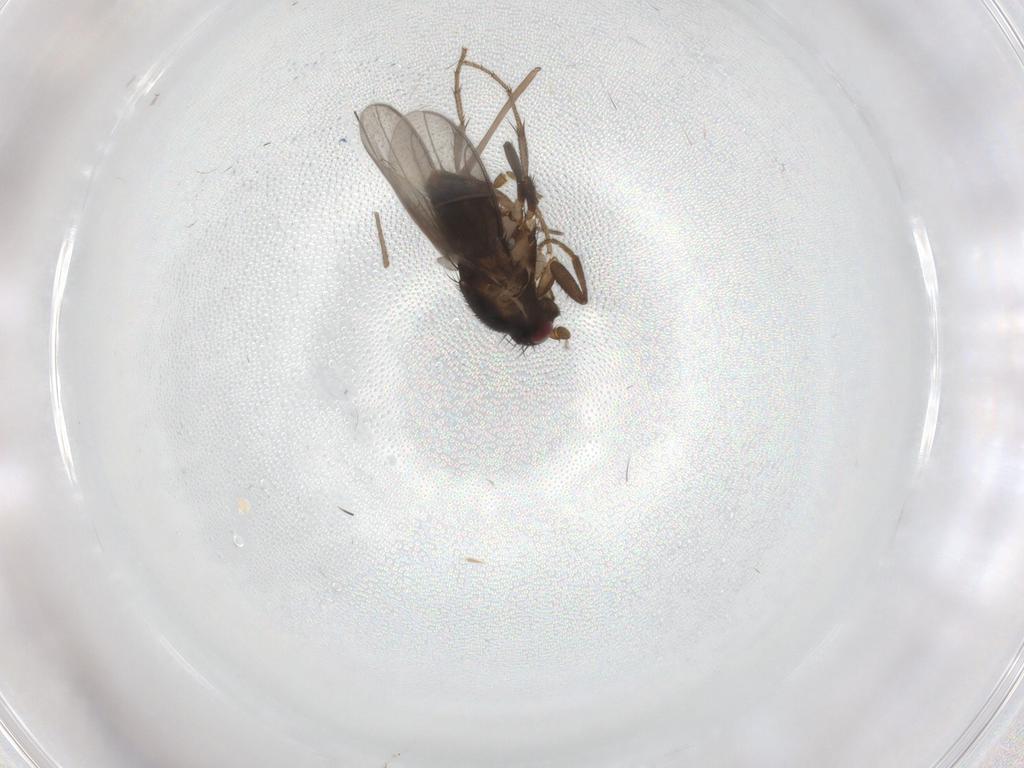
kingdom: Animalia
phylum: Arthropoda
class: Insecta
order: Diptera
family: Sphaeroceridae
